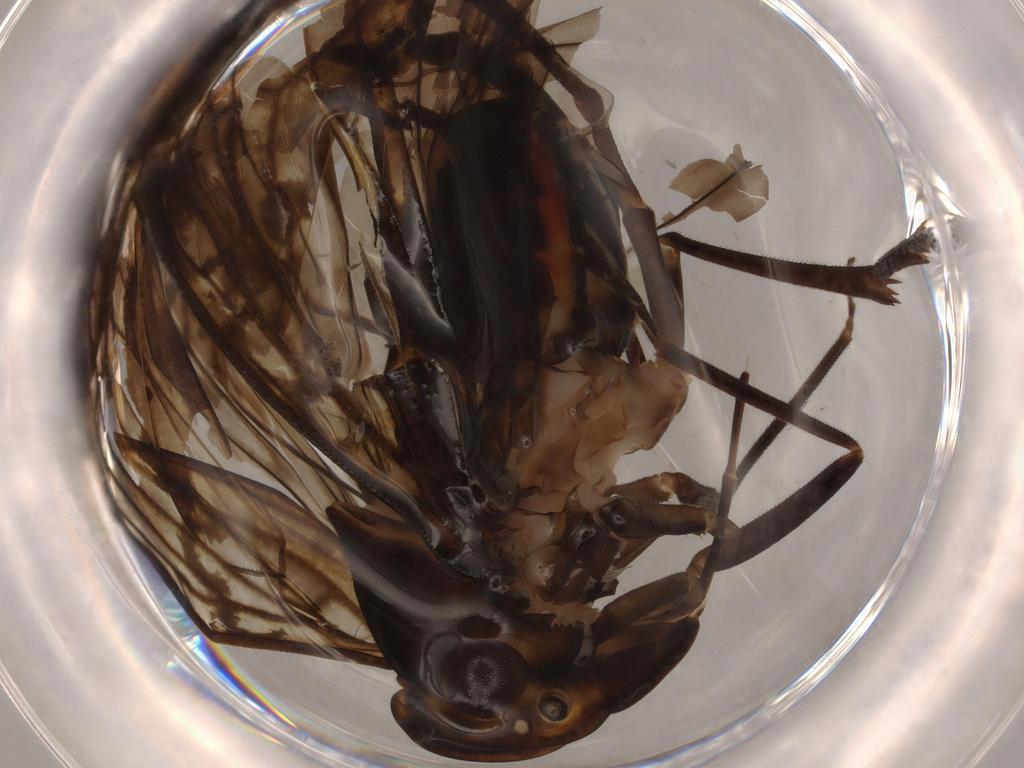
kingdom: Animalia
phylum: Arthropoda
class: Insecta
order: Hemiptera
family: Cixiidae
